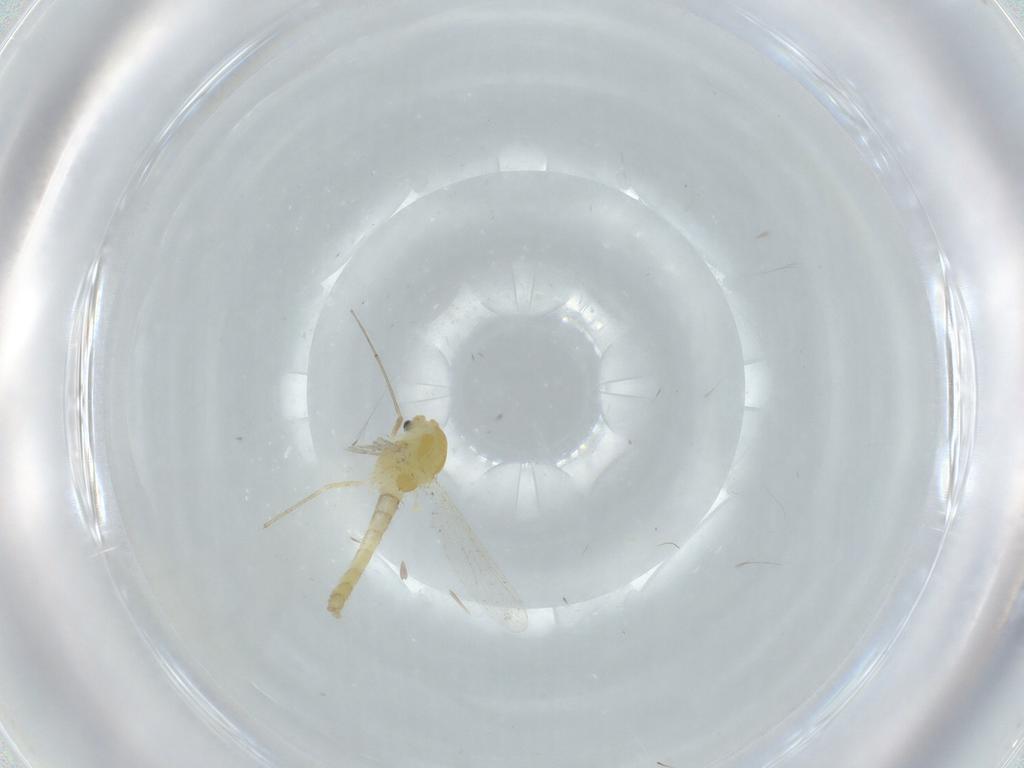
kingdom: Animalia
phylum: Arthropoda
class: Insecta
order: Diptera
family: Chironomidae
